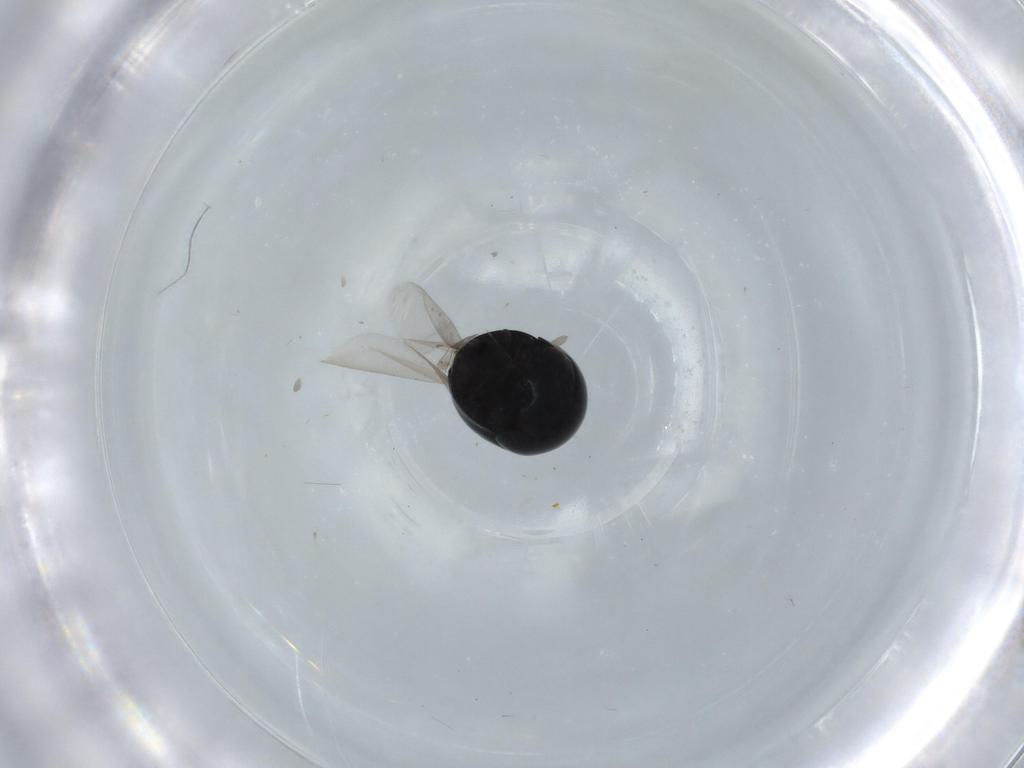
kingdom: Animalia
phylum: Arthropoda
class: Insecta
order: Coleoptera
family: Cybocephalidae
